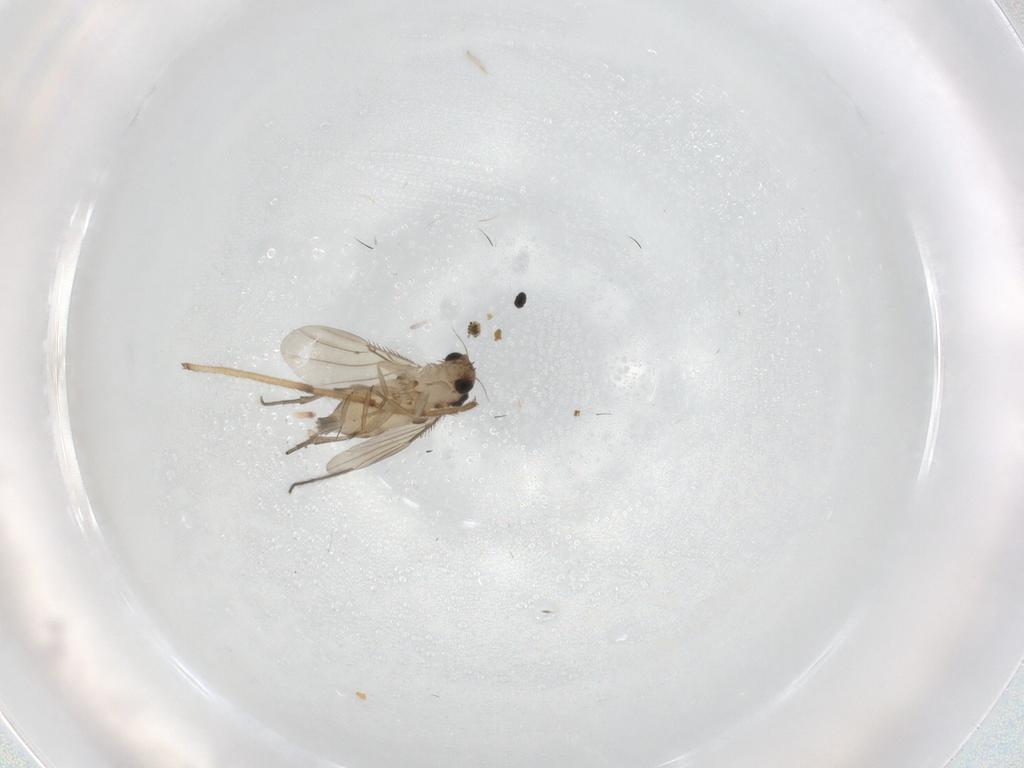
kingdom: Animalia
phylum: Arthropoda
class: Insecta
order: Diptera
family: Phoridae
